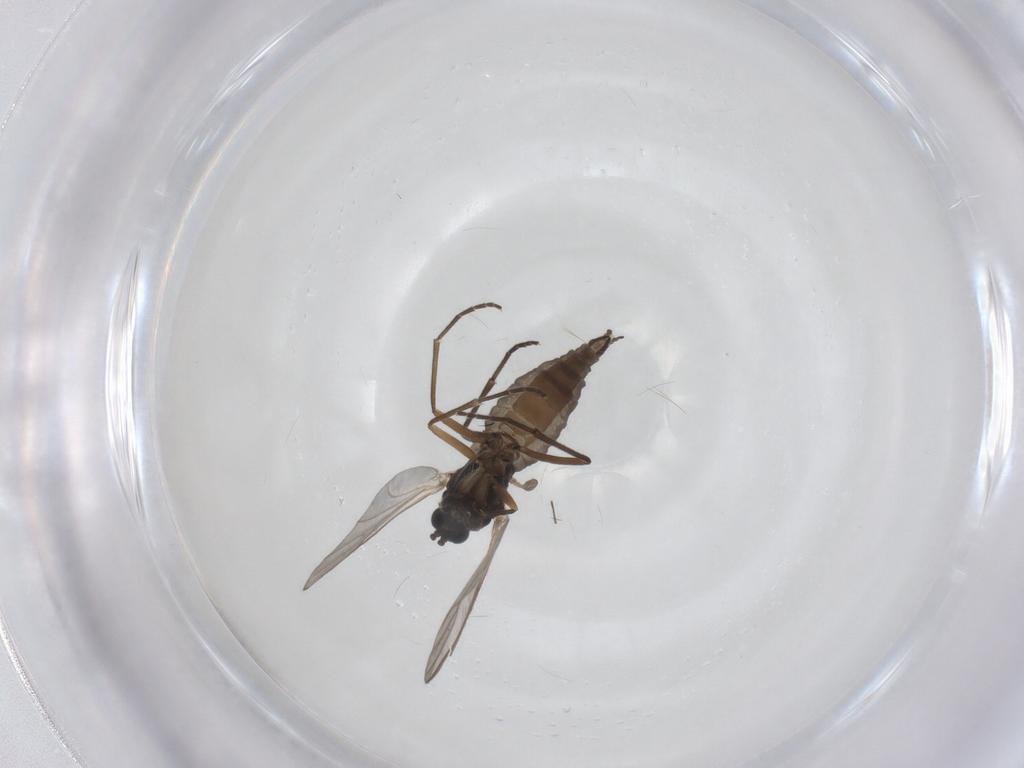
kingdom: Animalia
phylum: Arthropoda
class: Insecta
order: Diptera
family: Sciaridae
